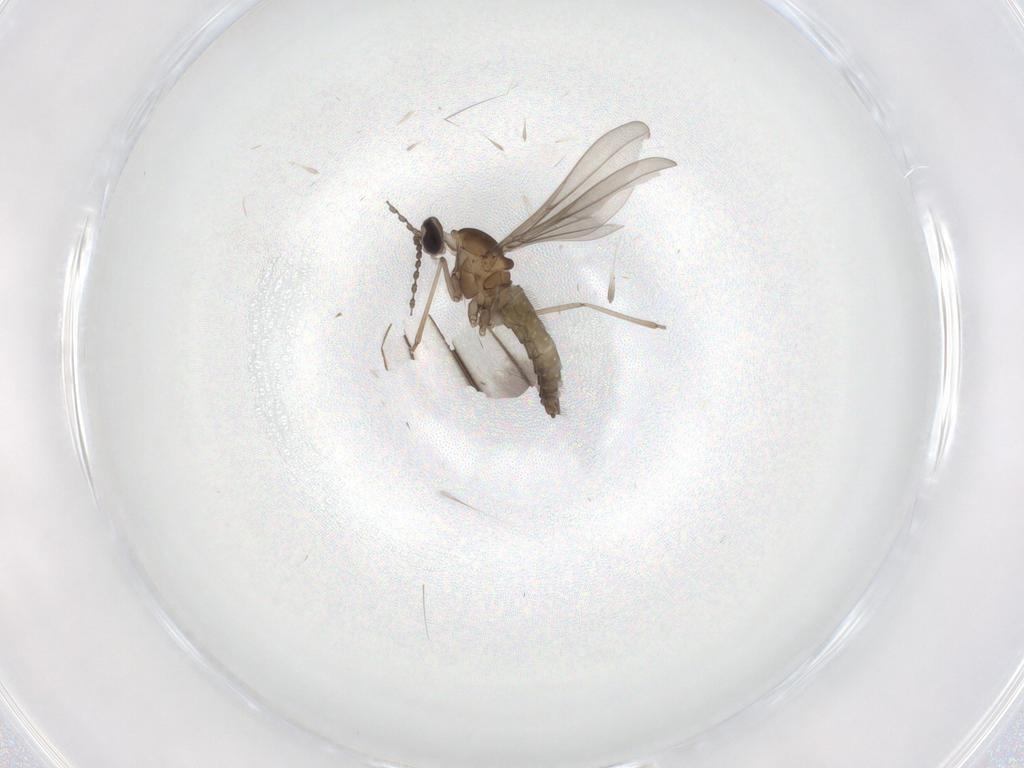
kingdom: Animalia
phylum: Arthropoda
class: Insecta
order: Diptera
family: Limoniidae
